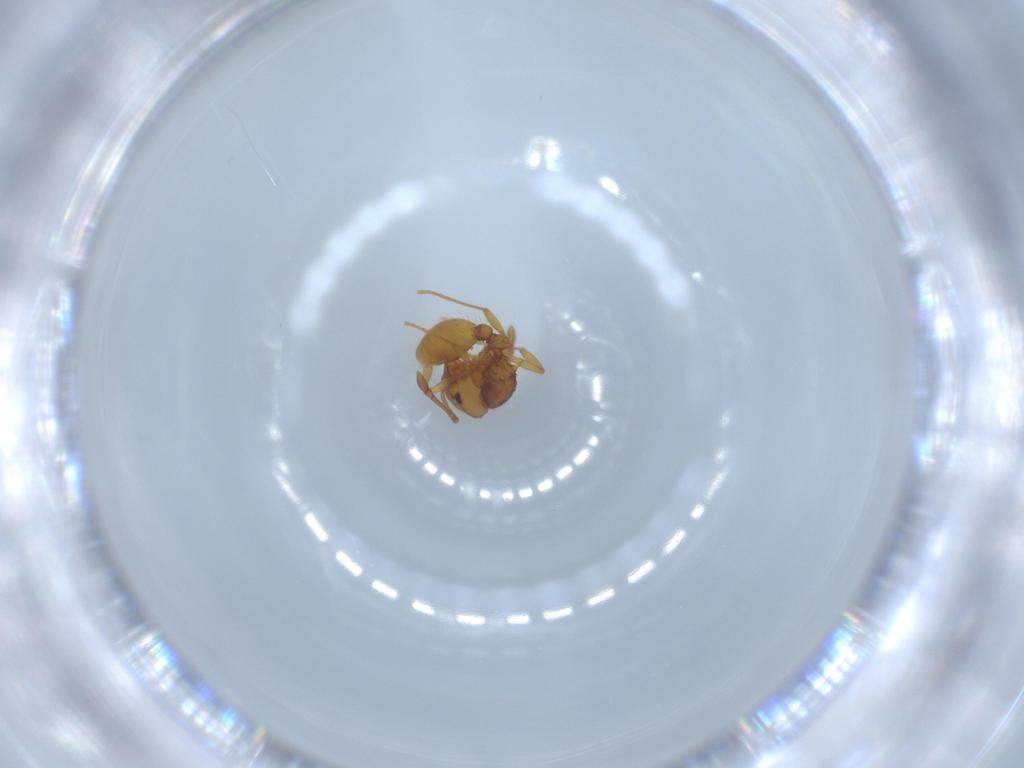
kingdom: Animalia
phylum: Arthropoda
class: Insecta
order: Hymenoptera
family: Formicidae
